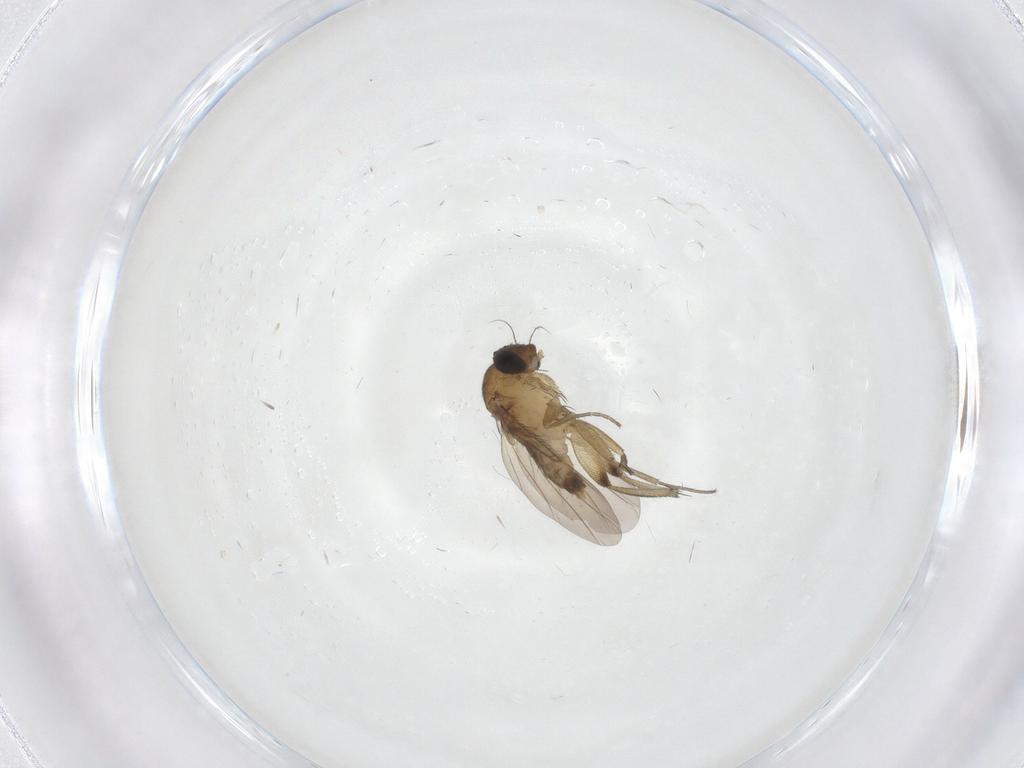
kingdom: Animalia
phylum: Arthropoda
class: Insecta
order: Diptera
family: Phoridae
